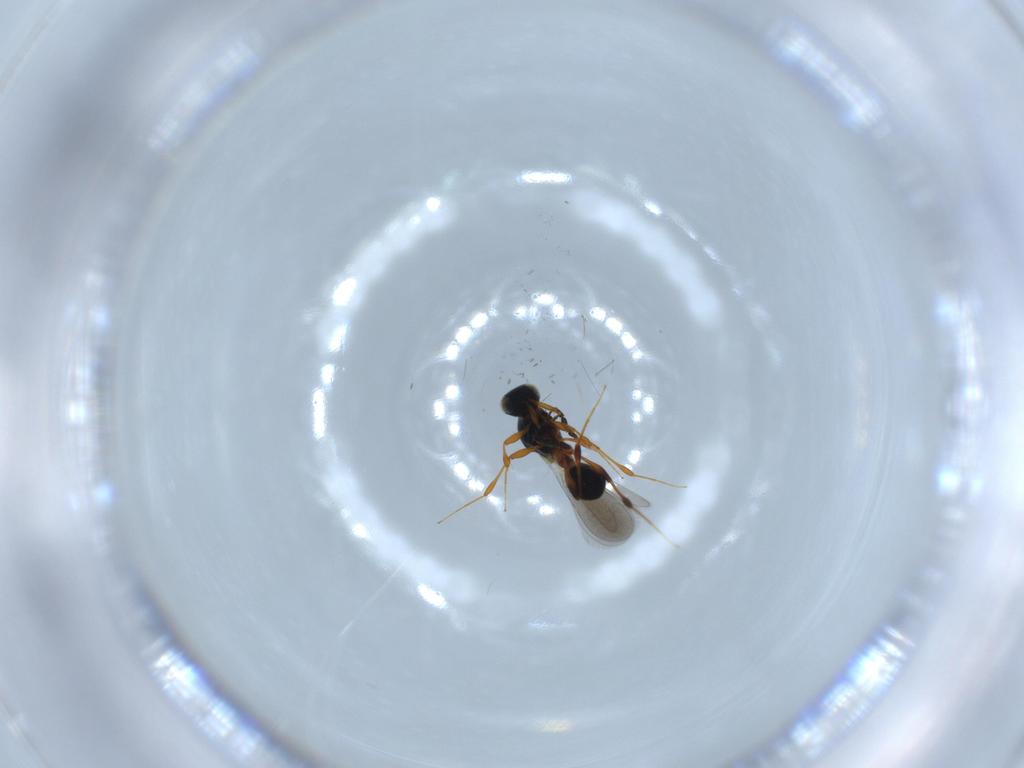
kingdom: Animalia
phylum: Arthropoda
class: Insecta
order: Hymenoptera
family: Platygastridae
